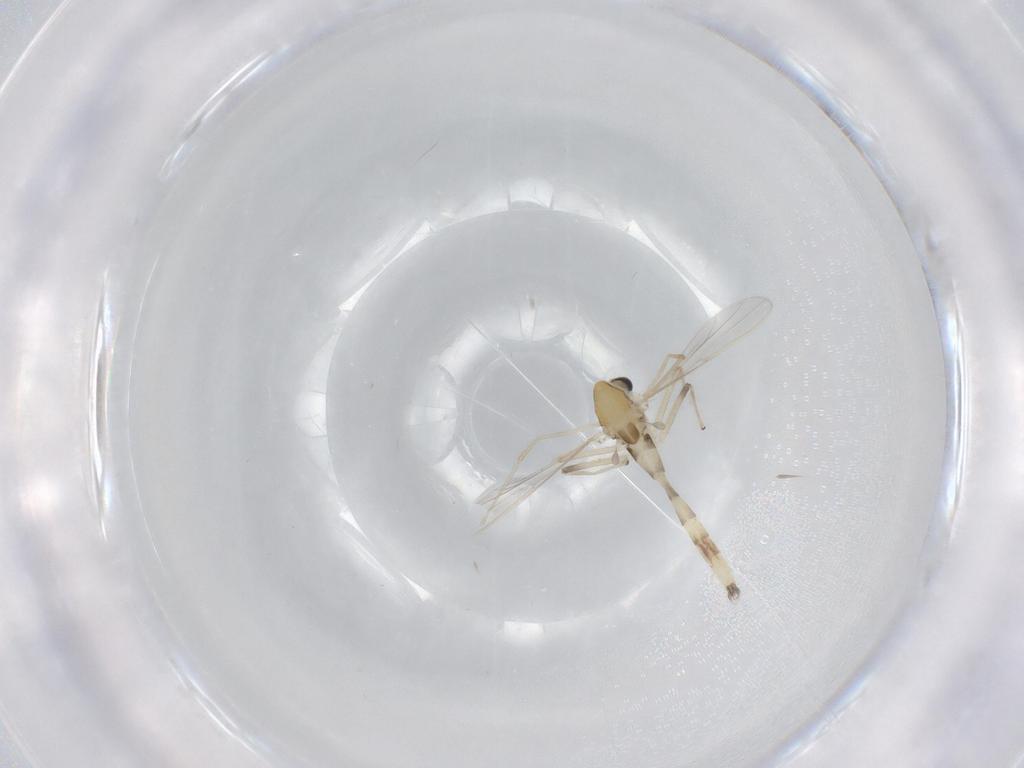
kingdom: Animalia
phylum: Arthropoda
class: Insecta
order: Diptera
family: Chironomidae
